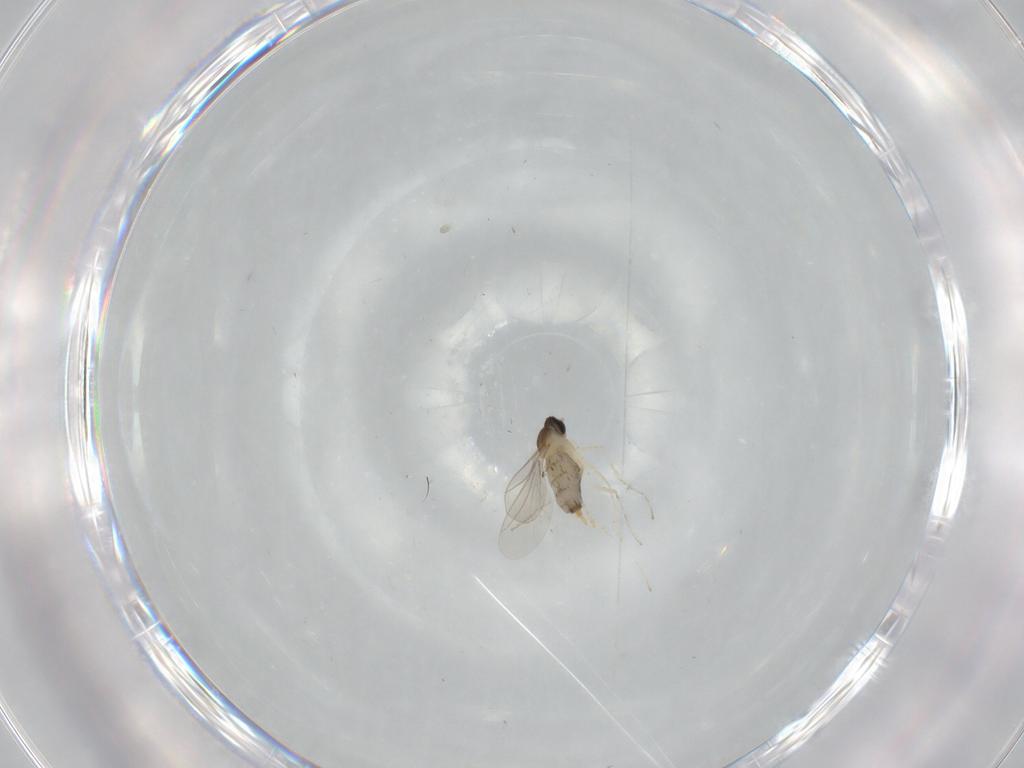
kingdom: Animalia
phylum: Arthropoda
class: Insecta
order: Diptera
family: Cecidomyiidae
